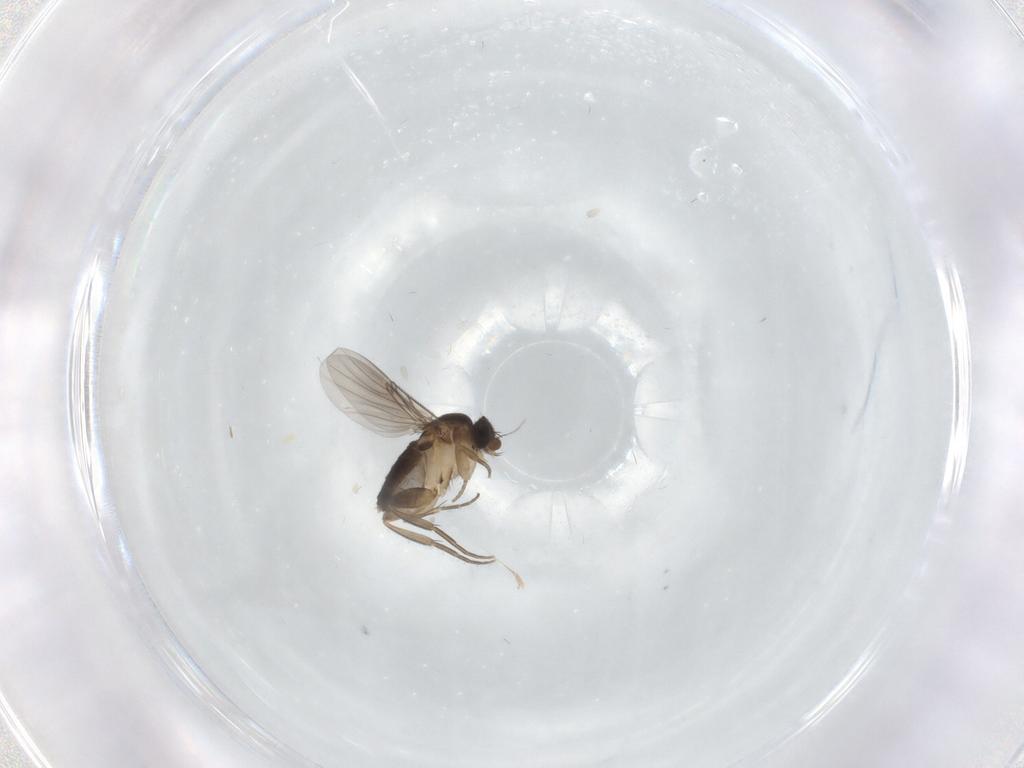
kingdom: Animalia
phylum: Arthropoda
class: Insecta
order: Diptera
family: Phoridae
